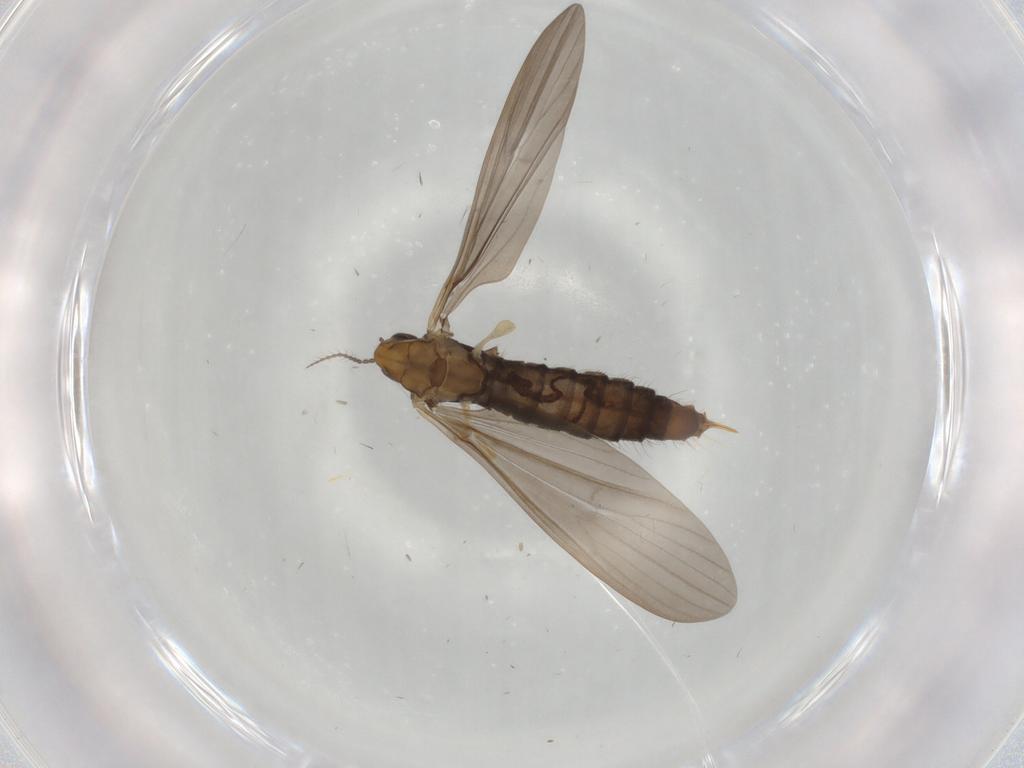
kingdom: Animalia
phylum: Arthropoda
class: Insecta
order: Diptera
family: Limoniidae
